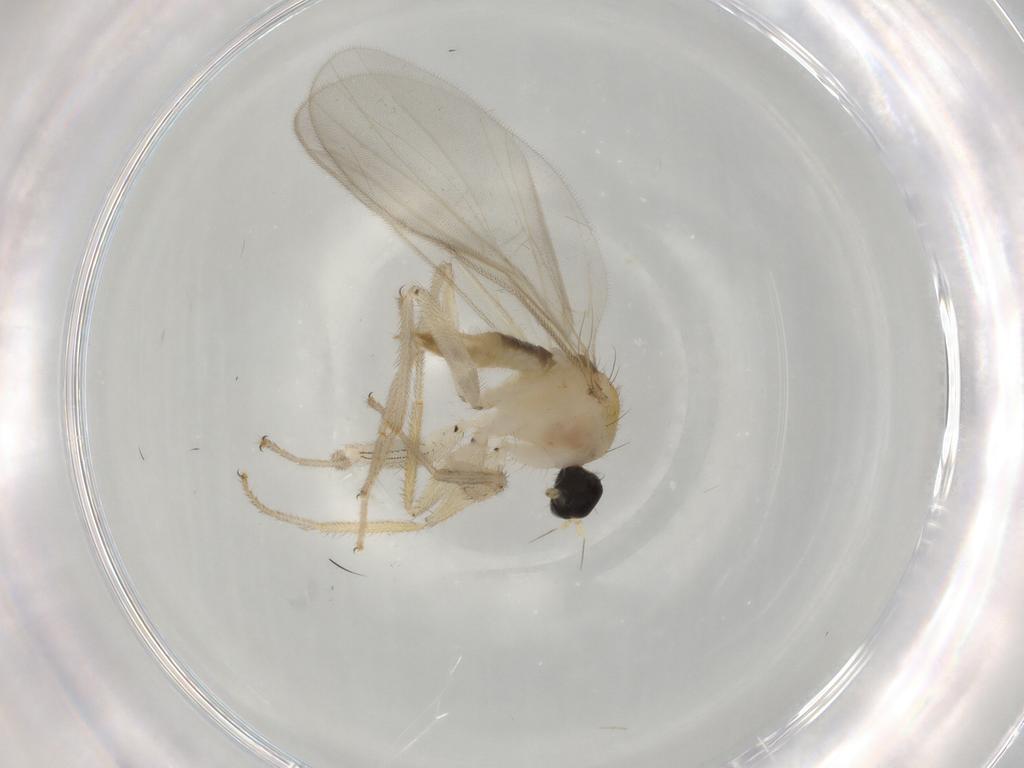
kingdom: Animalia
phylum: Arthropoda
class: Insecta
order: Diptera
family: Hybotidae
